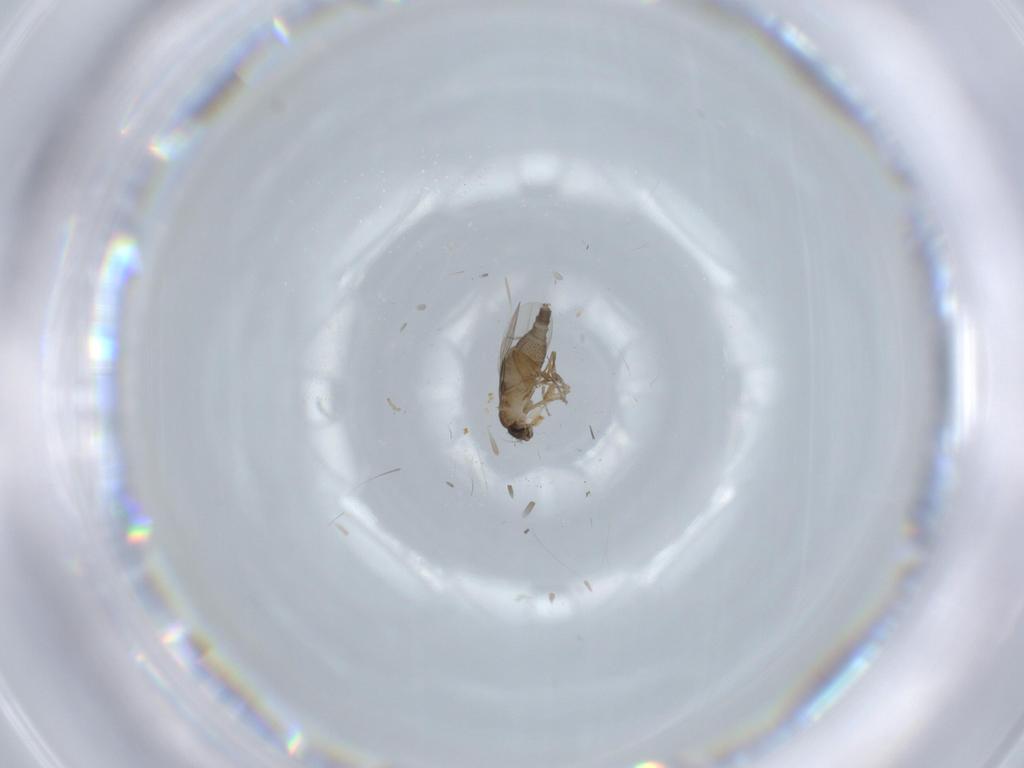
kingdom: Animalia
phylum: Arthropoda
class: Insecta
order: Diptera
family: Phoridae
